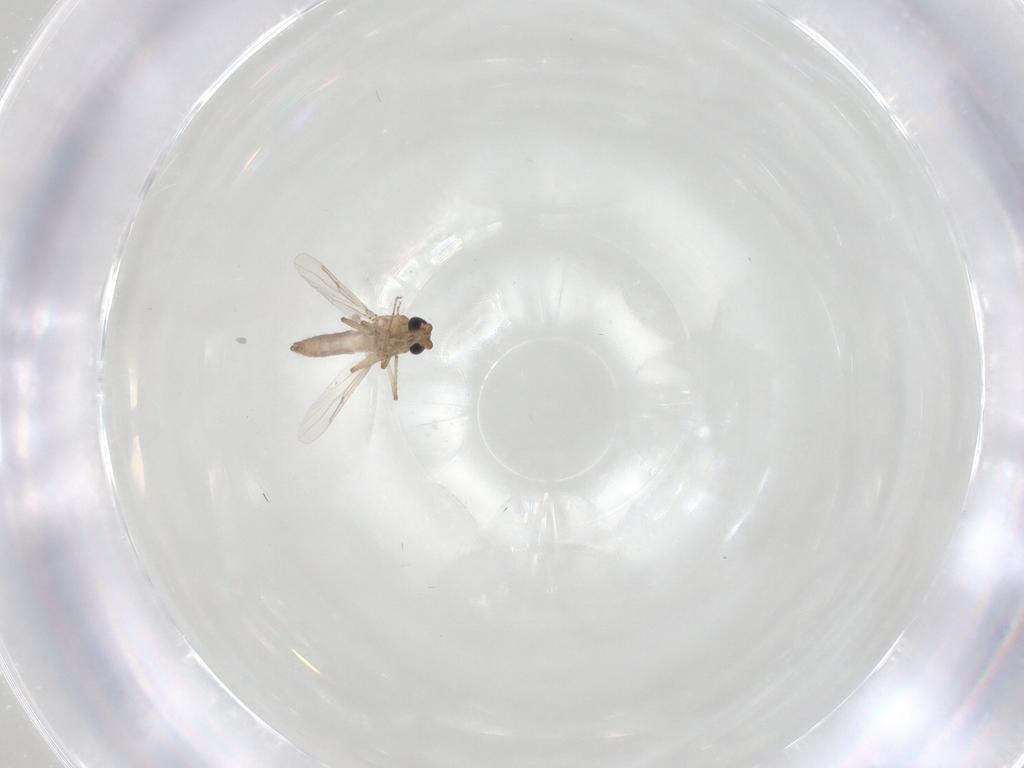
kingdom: Animalia
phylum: Arthropoda
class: Insecta
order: Diptera
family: Ceratopogonidae
